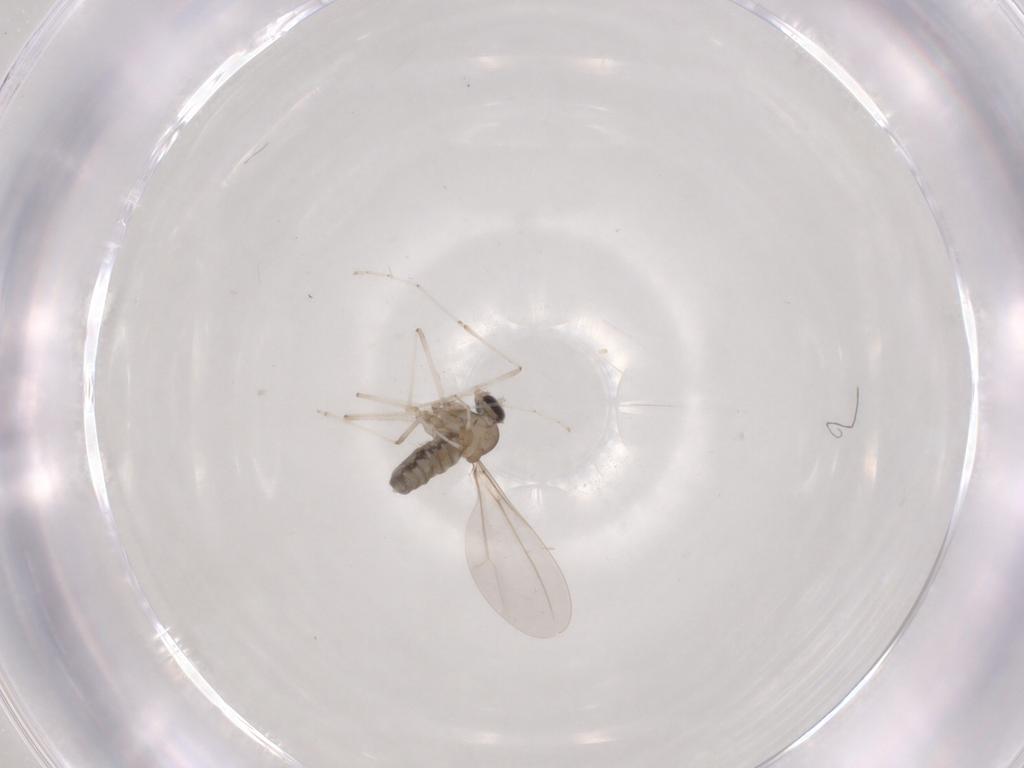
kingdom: Animalia
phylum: Arthropoda
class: Insecta
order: Diptera
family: Cecidomyiidae
